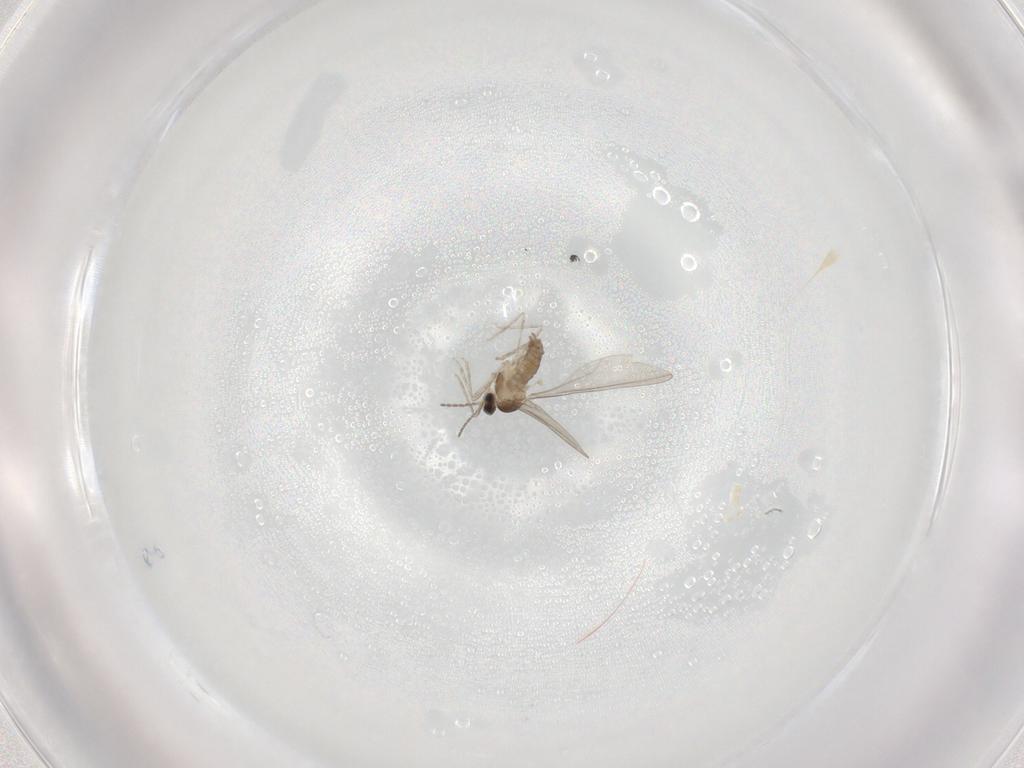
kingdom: Animalia
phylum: Arthropoda
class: Insecta
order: Diptera
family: Cecidomyiidae
